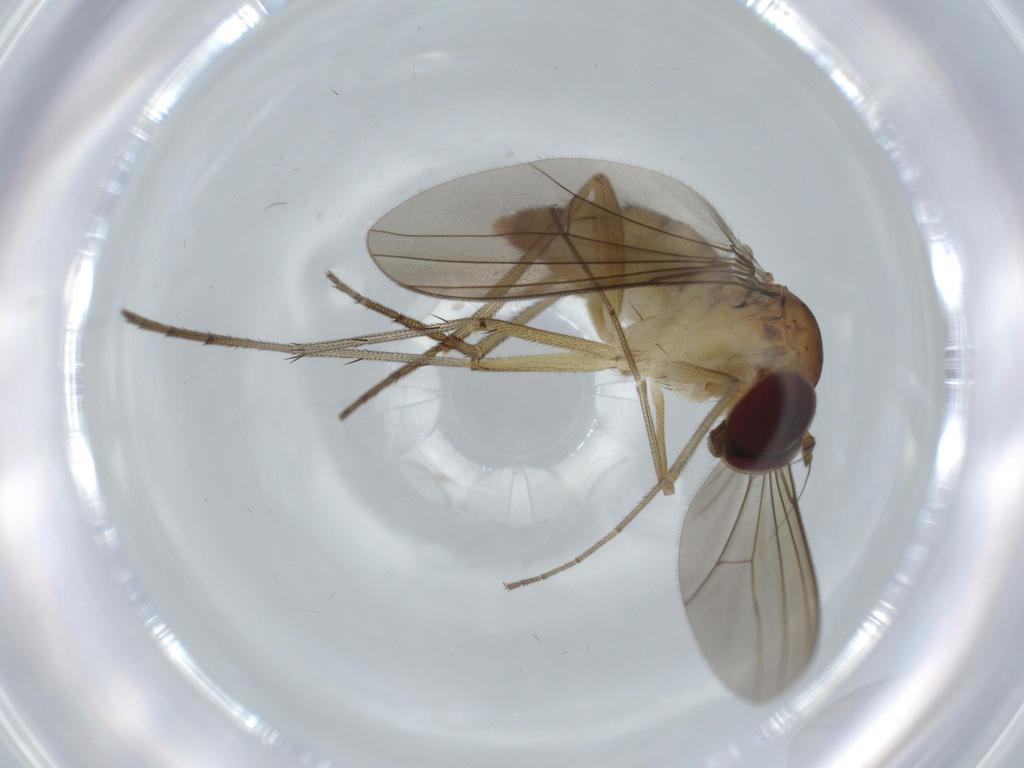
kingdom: Animalia
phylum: Arthropoda
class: Insecta
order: Diptera
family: Dolichopodidae
